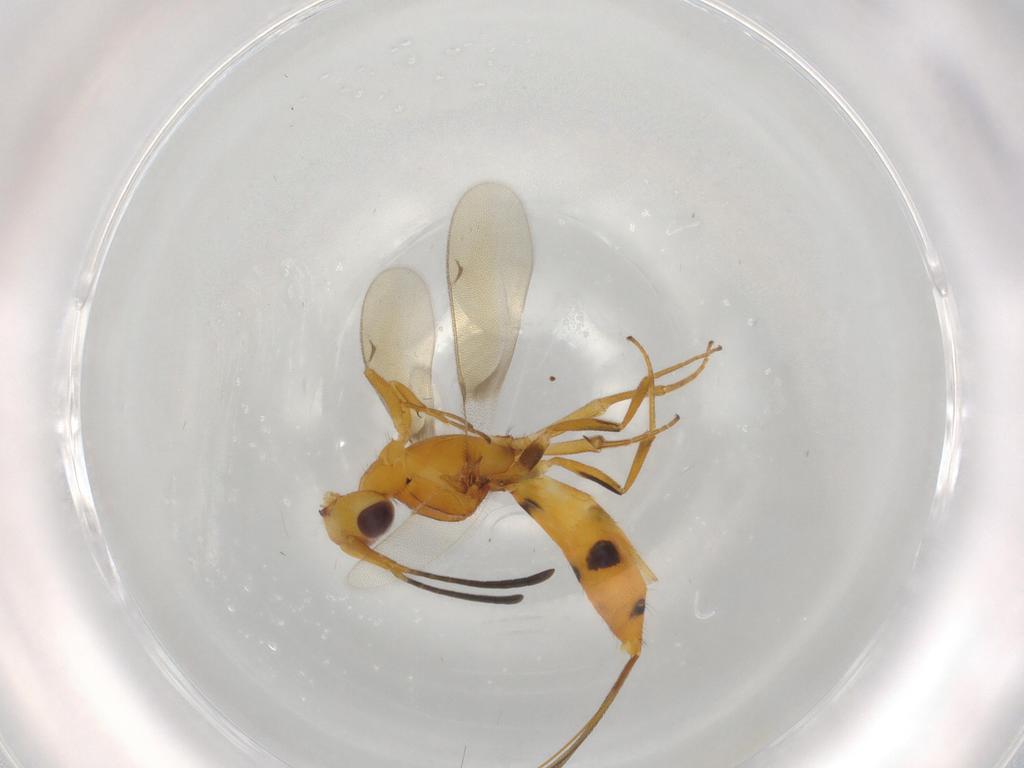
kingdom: Animalia
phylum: Arthropoda
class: Insecta
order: Hymenoptera
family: Eupelmidae
